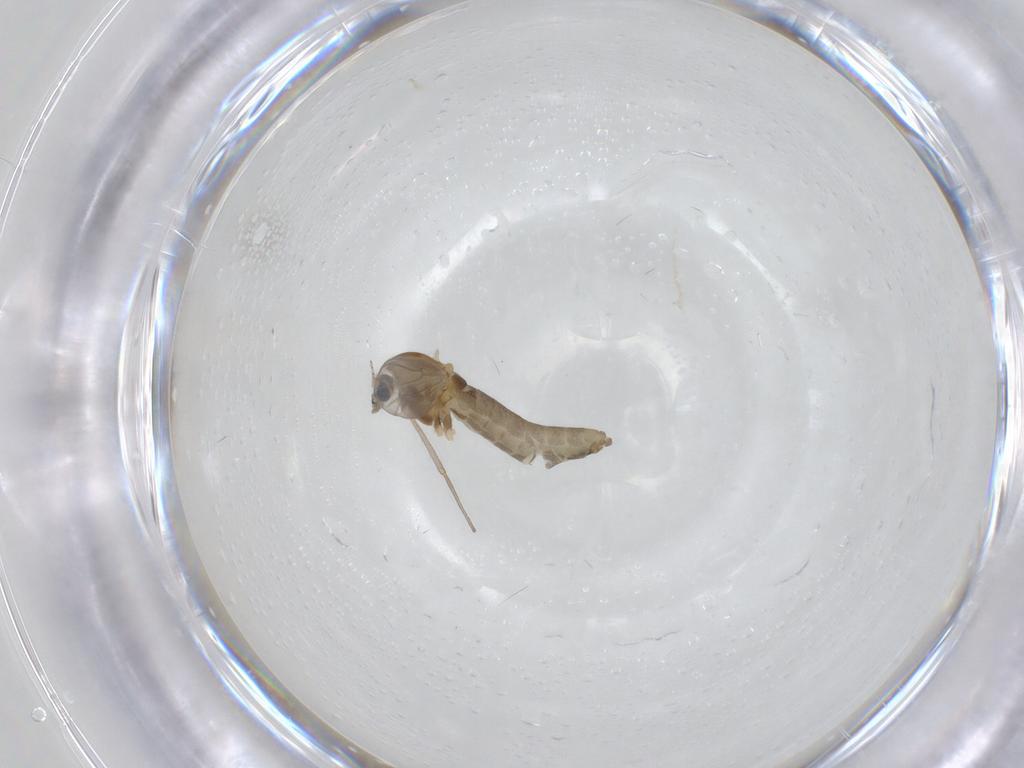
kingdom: Animalia
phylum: Arthropoda
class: Insecta
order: Diptera
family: Chironomidae
